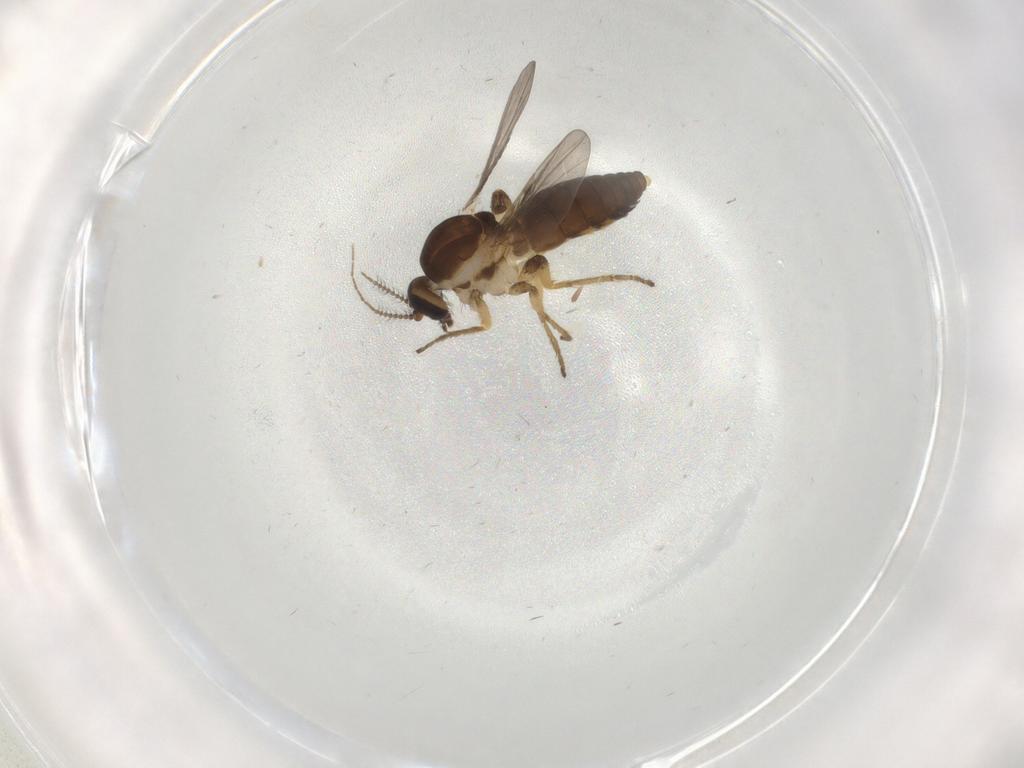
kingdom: Animalia
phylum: Arthropoda
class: Insecta
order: Diptera
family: Ceratopogonidae
